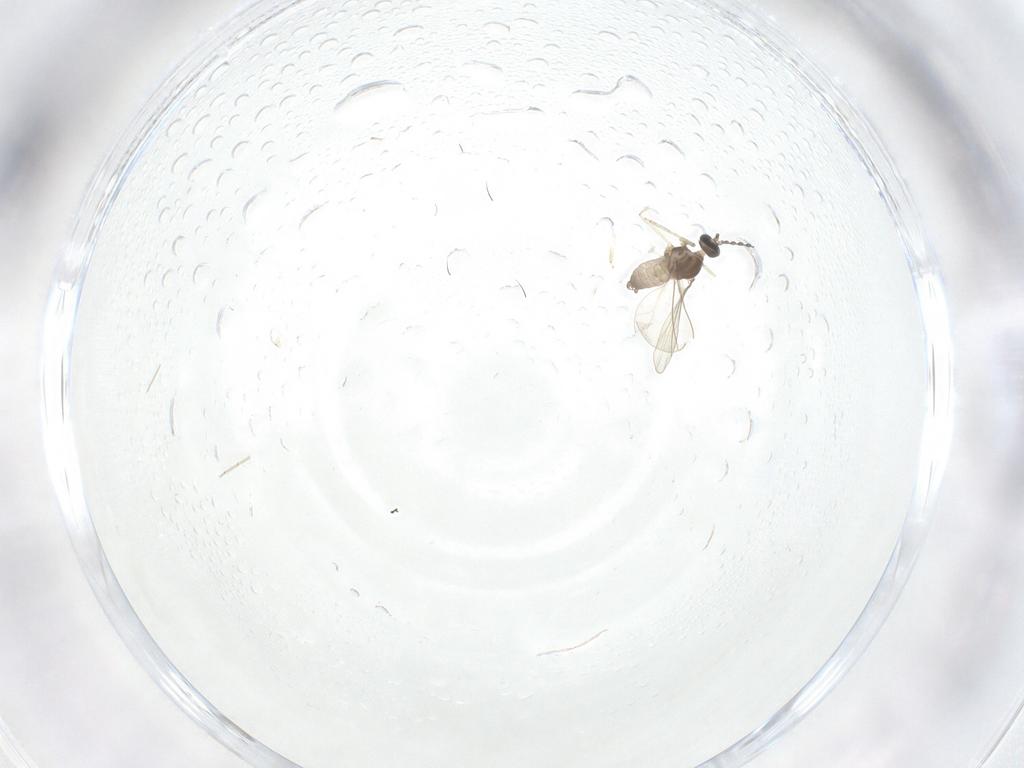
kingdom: Animalia
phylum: Arthropoda
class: Insecta
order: Diptera
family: Cecidomyiidae
